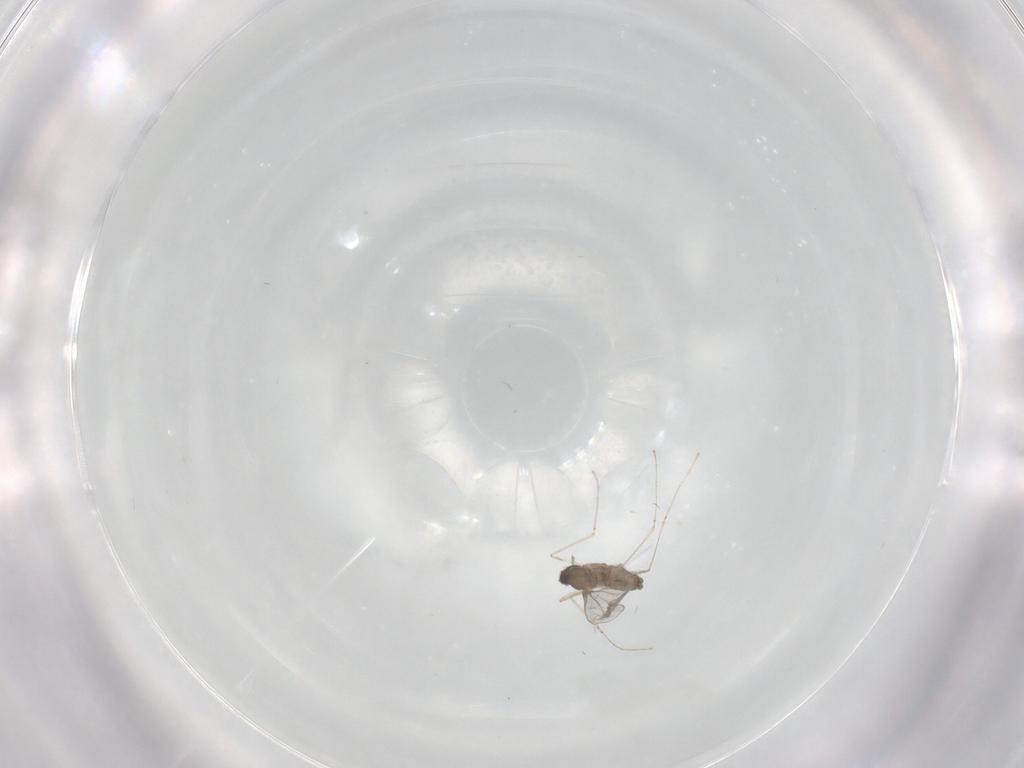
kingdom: Animalia
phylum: Arthropoda
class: Insecta
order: Diptera
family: Cecidomyiidae
